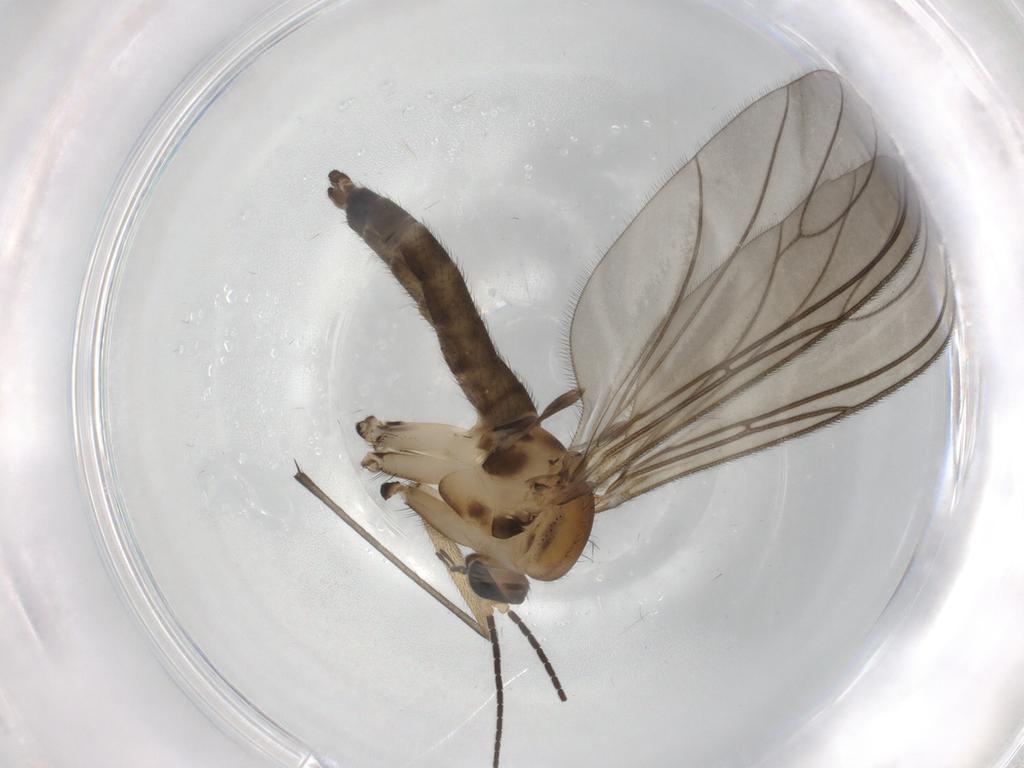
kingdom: Animalia
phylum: Arthropoda
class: Insecta
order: Diptera
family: Sciaridae
